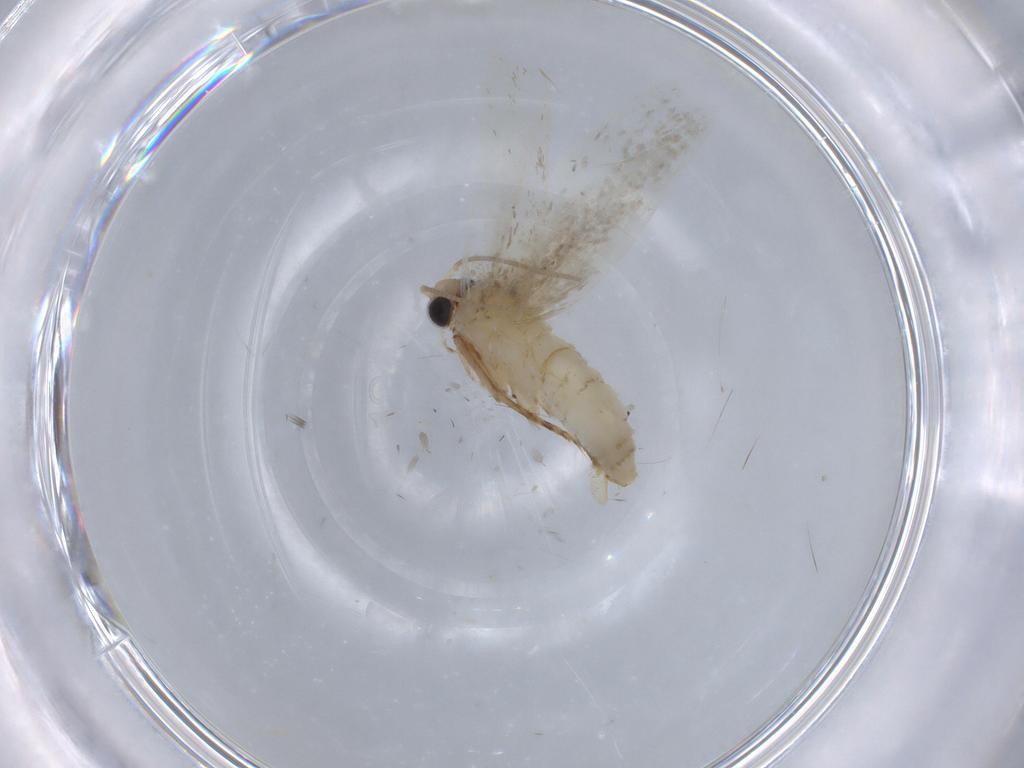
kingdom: Animalia
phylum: Arthropoda
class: Insecta
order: Lepidoptera
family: Tineidae
